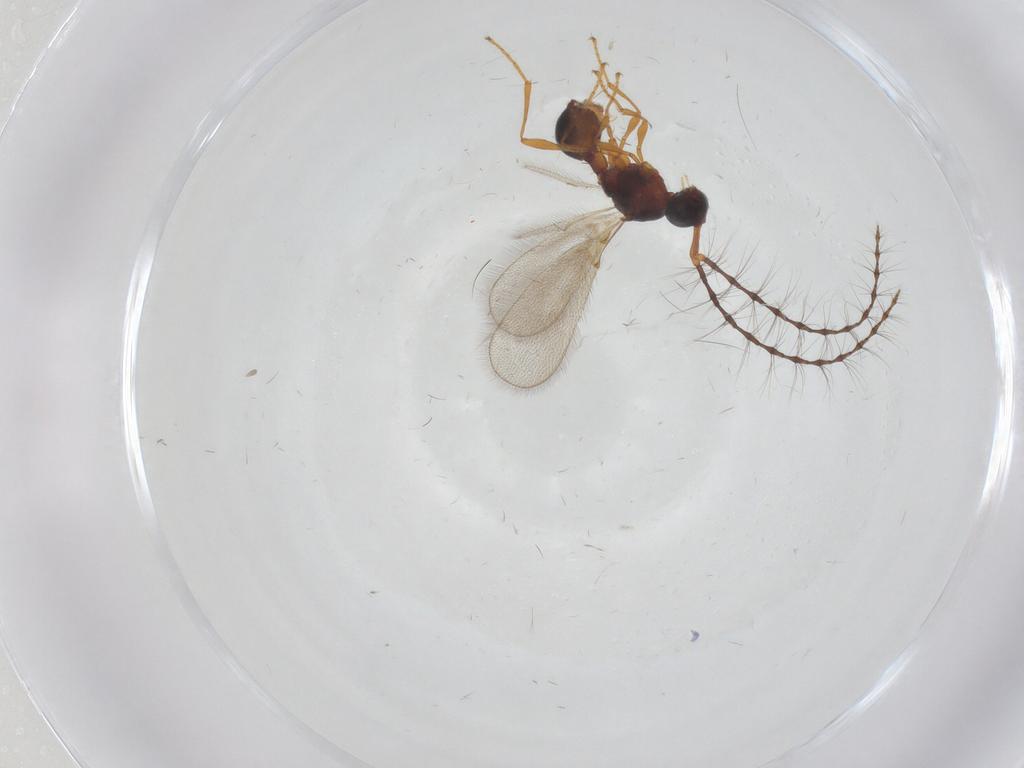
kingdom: Animalia
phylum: Arthropoda
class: Insecta
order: Hymenoptera
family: Diapriidae
